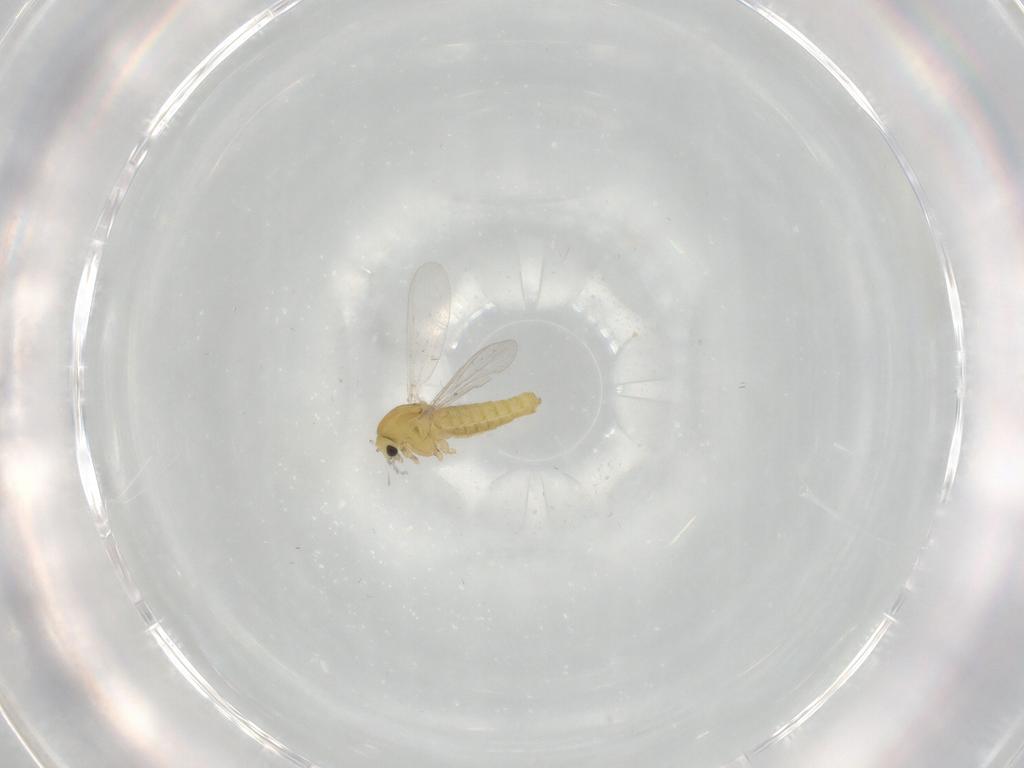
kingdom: Animalia
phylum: Arthropoda
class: Insecta
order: Diptera
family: Chironomidae
